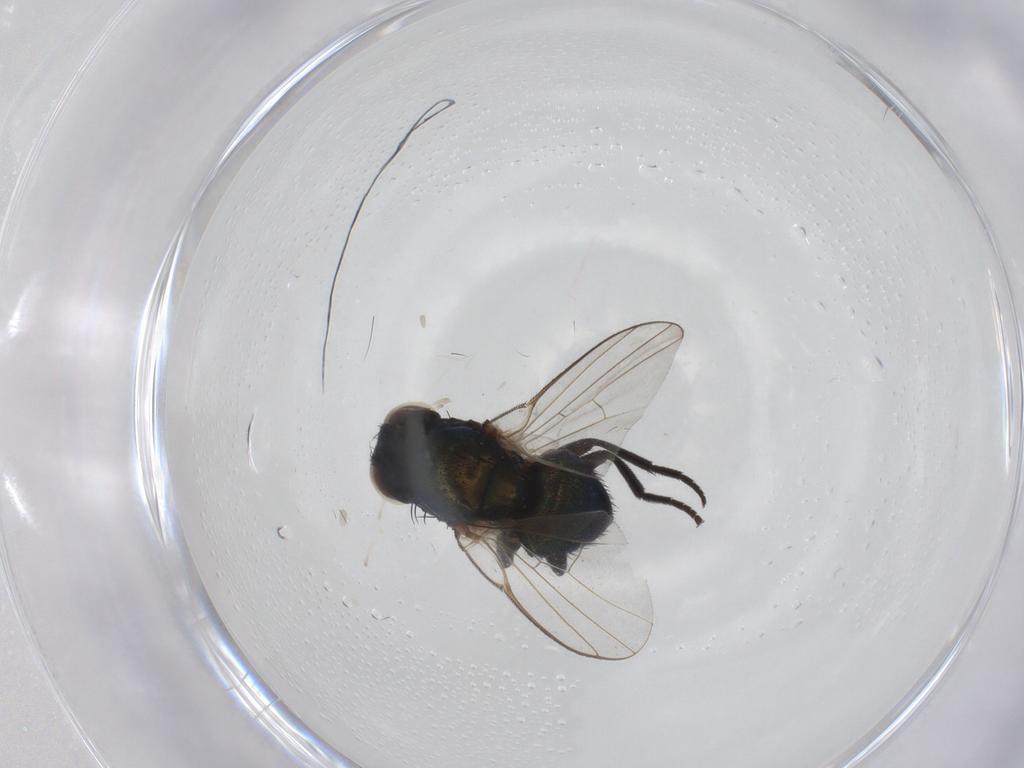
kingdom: Animalia
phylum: Arthropoda
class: Insecta
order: Diptera
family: Agromyzidae
